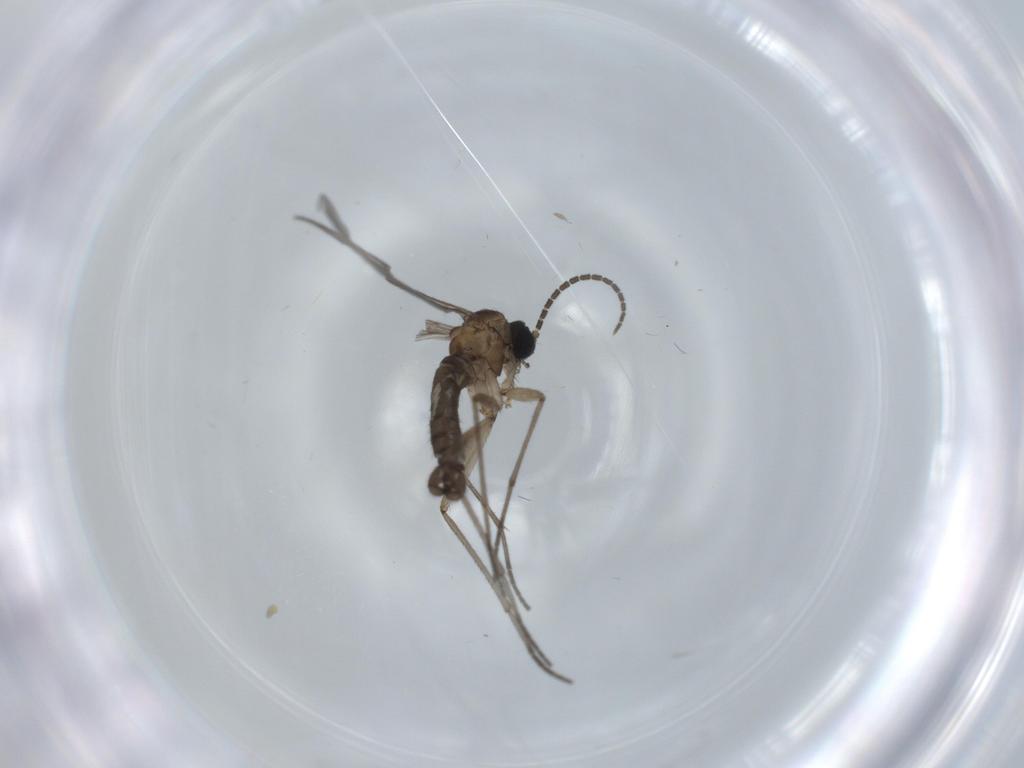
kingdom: Animalia
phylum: Arthropoda
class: Insecta
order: Diptera
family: Sciaridae
